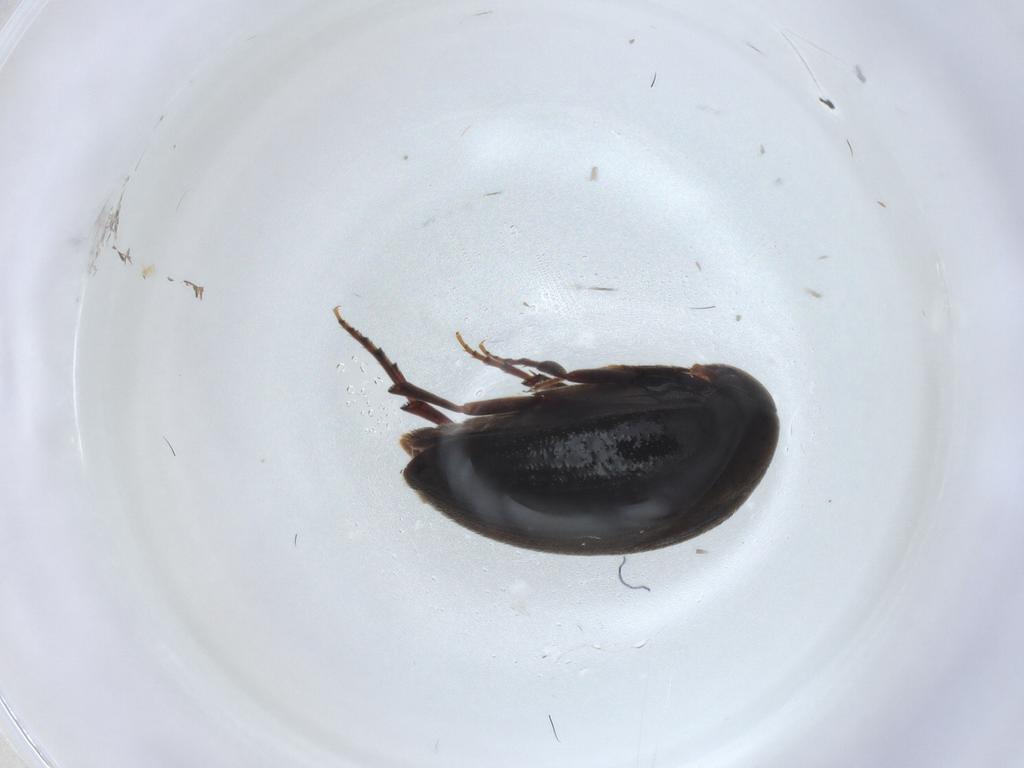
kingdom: Animalia
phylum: Arthropoda
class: Insecta
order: Coleoptera
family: Eucinetidae
